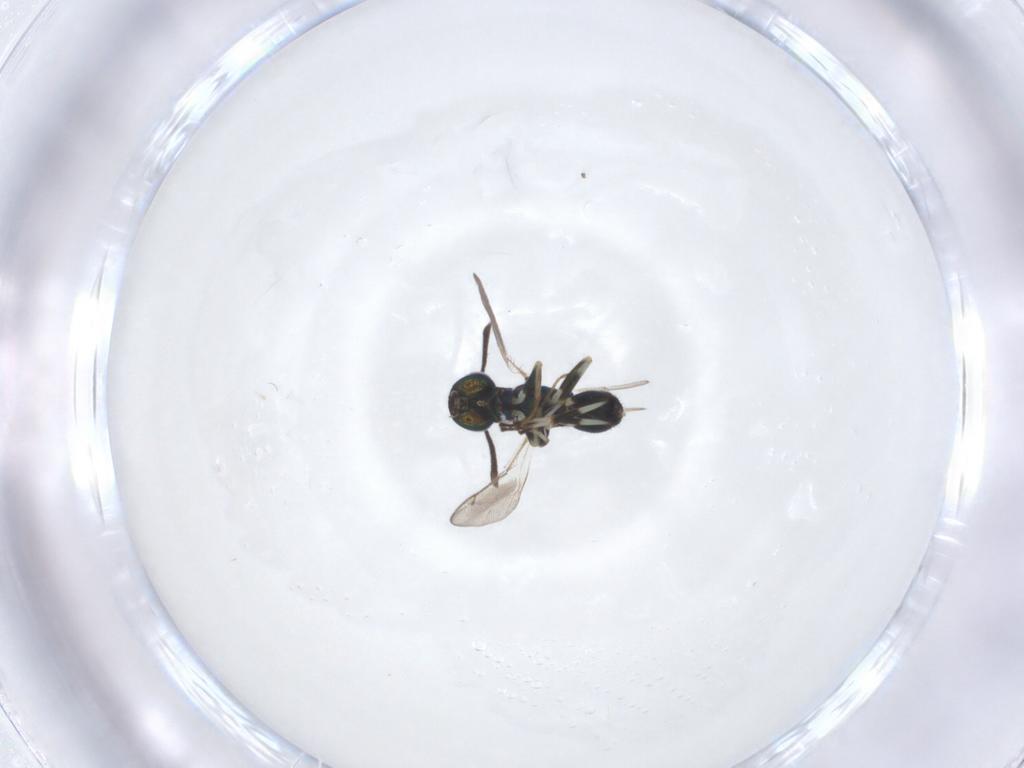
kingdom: Animalia
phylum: Arthropoda
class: Insecta
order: Hymenoptera
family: Eupelmidae
